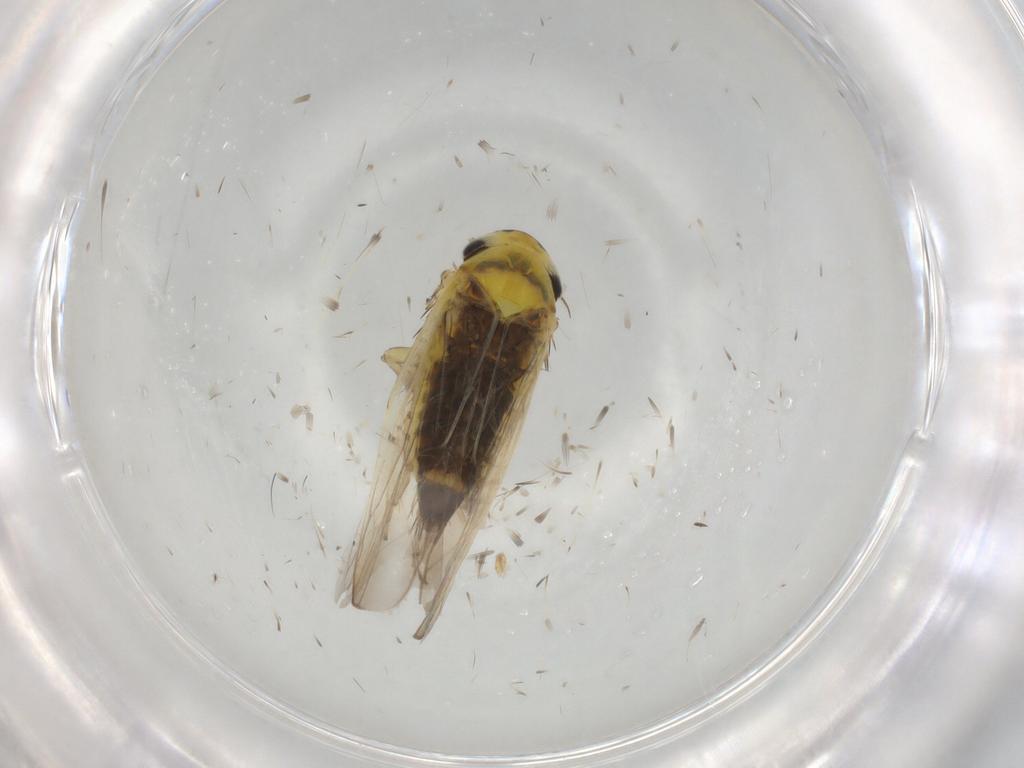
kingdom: Animalia
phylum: Arthropoda
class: Insecta
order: Hemiptera
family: Cicadellidae
